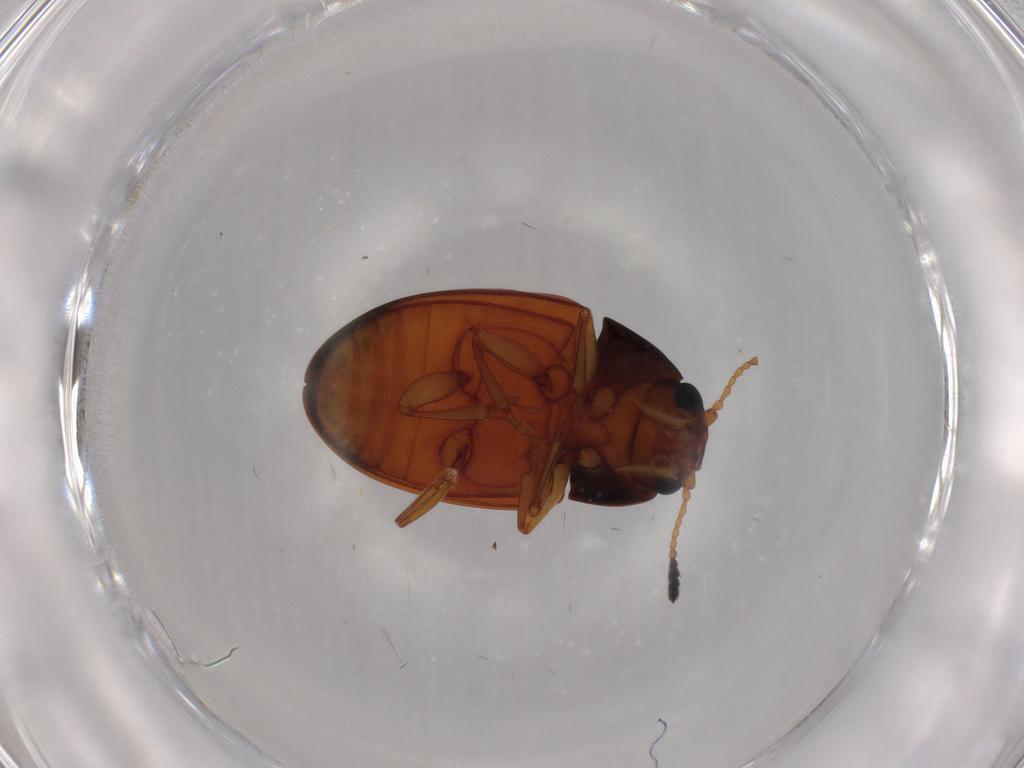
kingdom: Animalia
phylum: Arthropoda
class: Insecta
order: Coleoptera
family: Erotylidae
